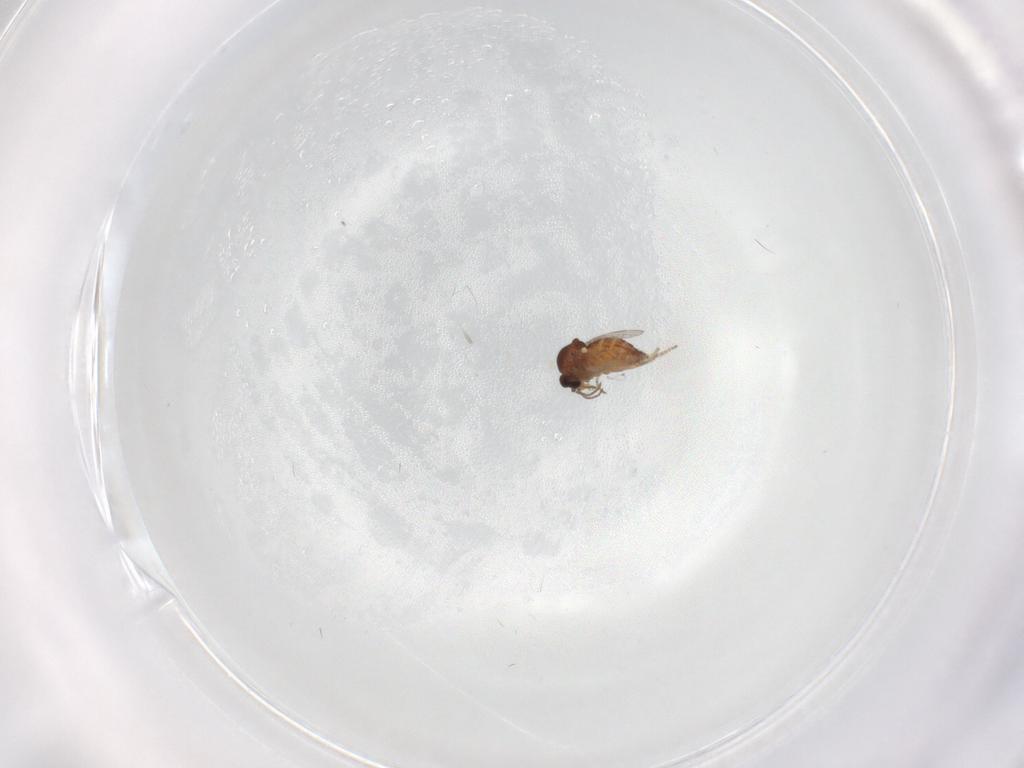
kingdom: Animalia
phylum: Arthropoda
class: Insecta
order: Diptera
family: Ceratopogonidae
